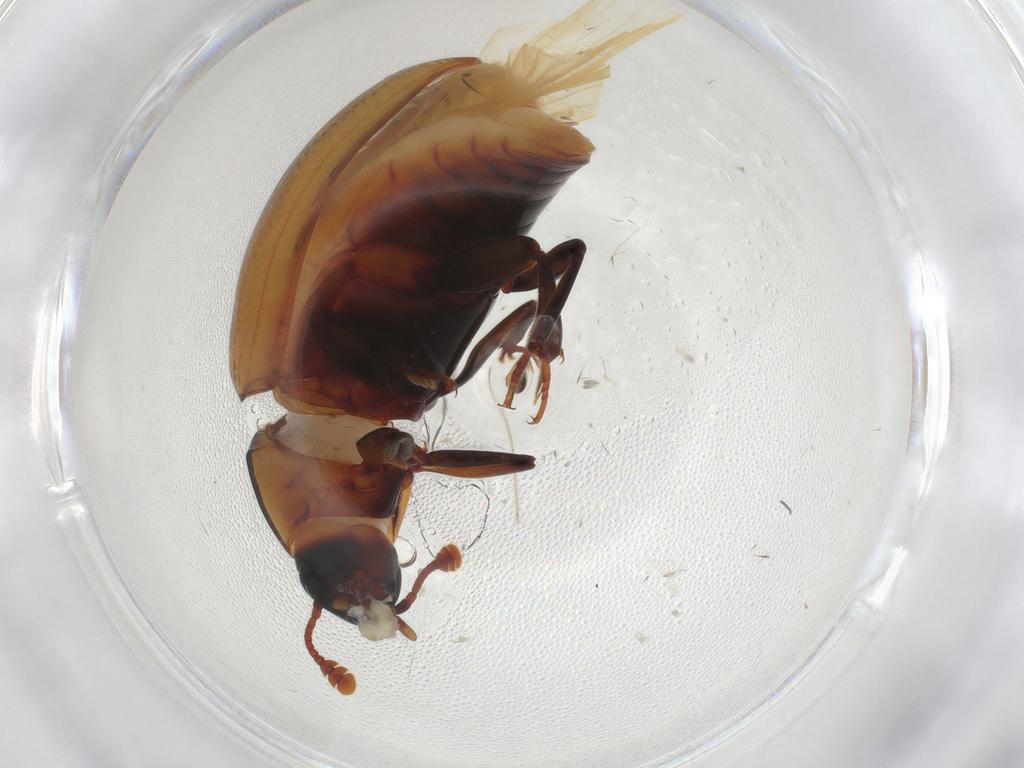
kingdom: Animalia
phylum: Arthropoda
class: Insecta
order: Coleoptera
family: Zopheridae
